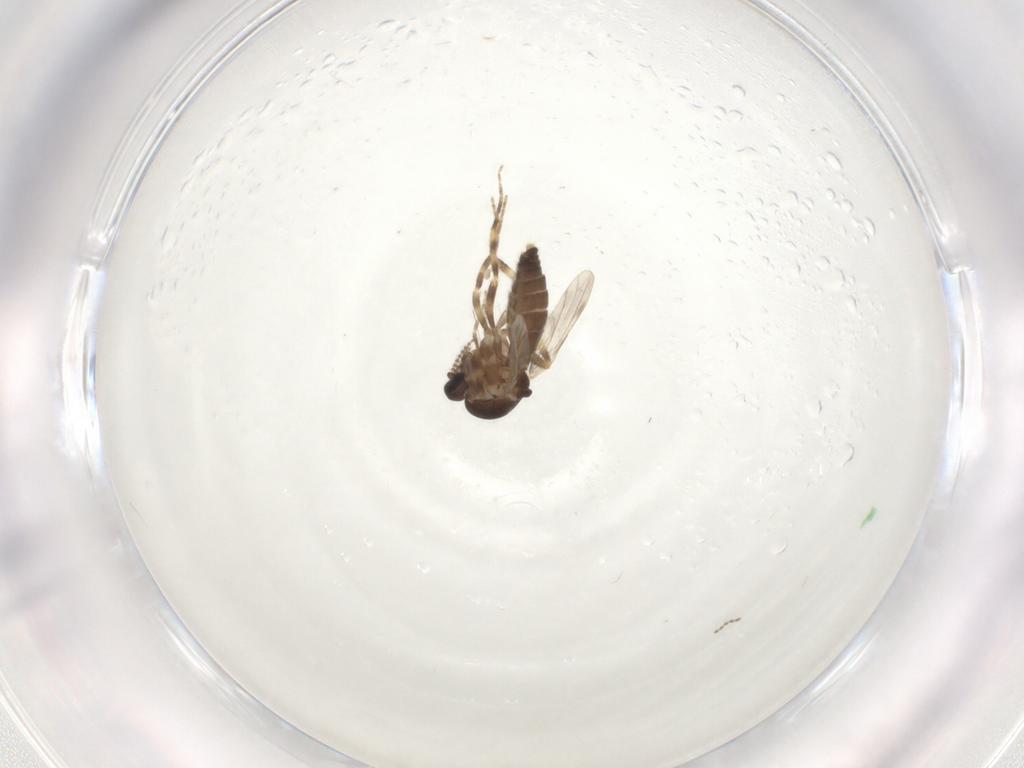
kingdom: Animalia
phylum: Arthropoda
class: Insecta
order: Diptera
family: Ceratopogonidae
